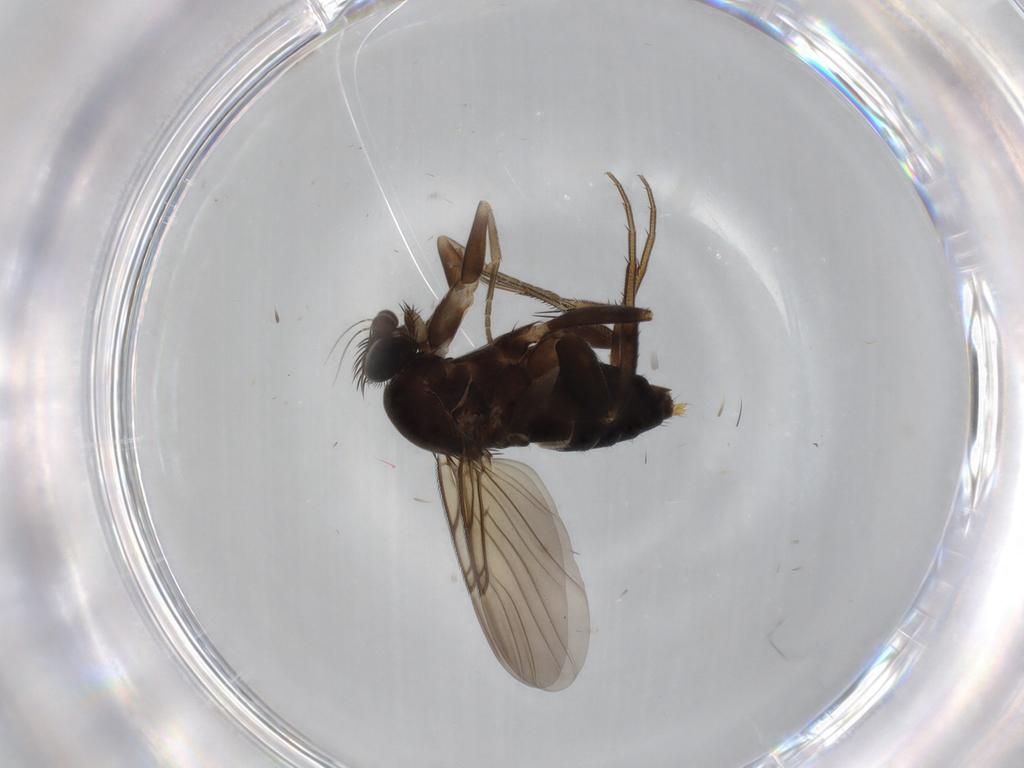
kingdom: Animalia
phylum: Arthropoda
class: Insecta
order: Diptera
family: Phoridae
